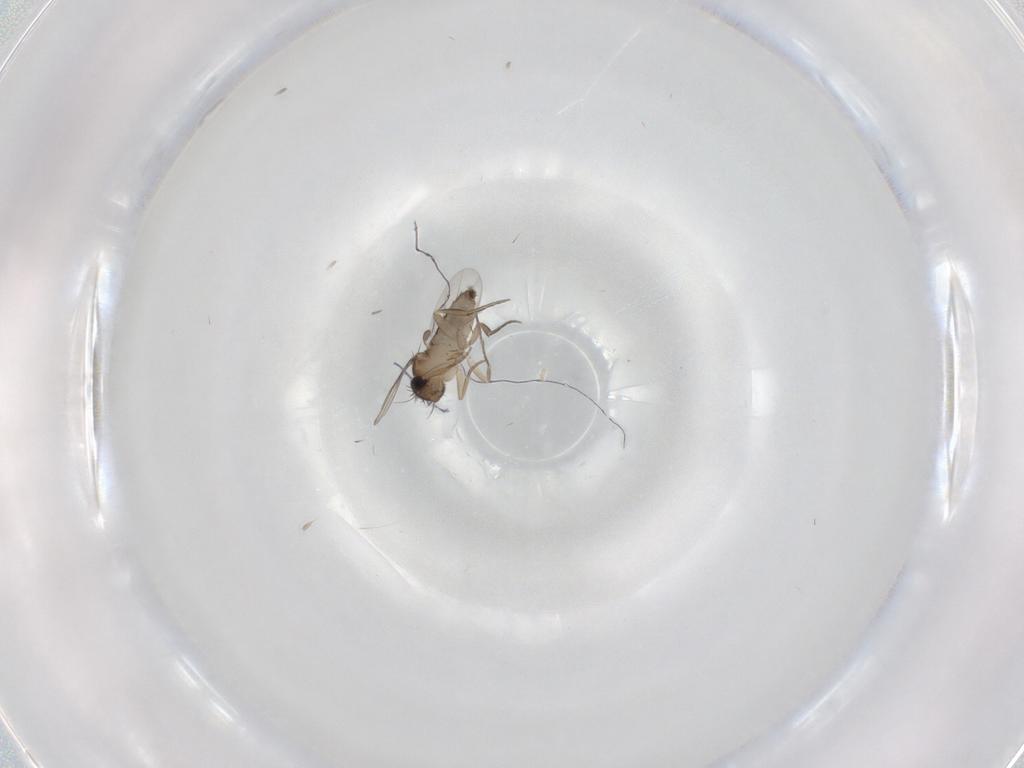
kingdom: Animalia
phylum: Arthropoda
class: Insecta
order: Diptera
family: Phoridae
